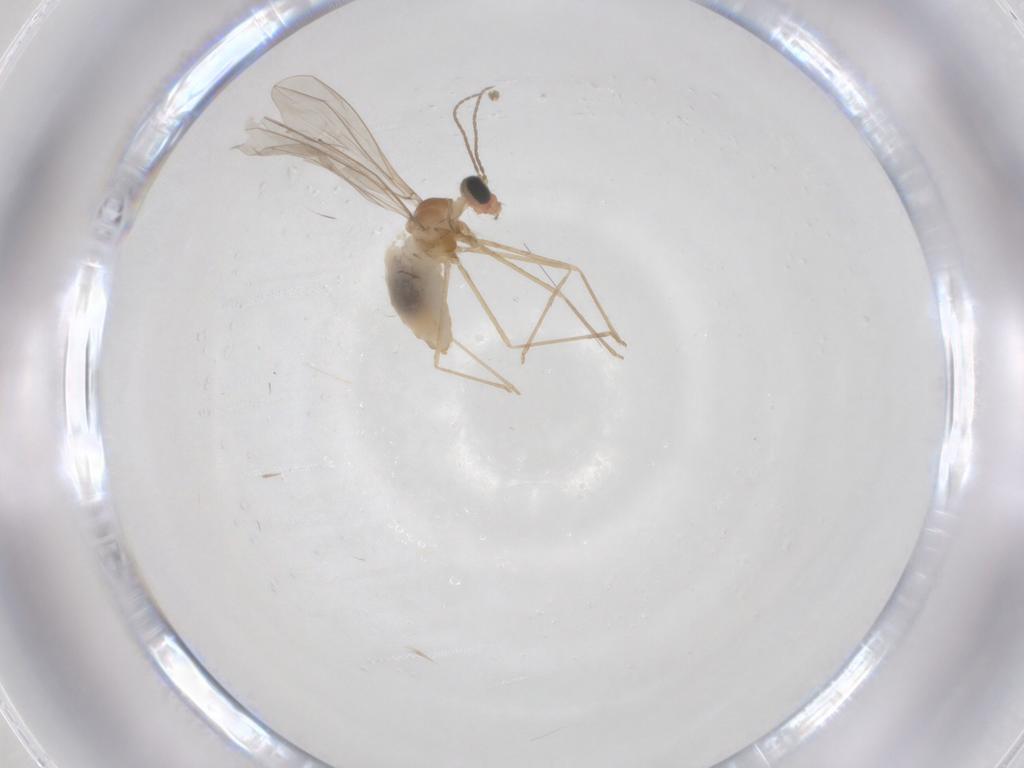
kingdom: Animalia
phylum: Arthropoda
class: Insecta
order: Diptera
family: Cecidomyiidae
